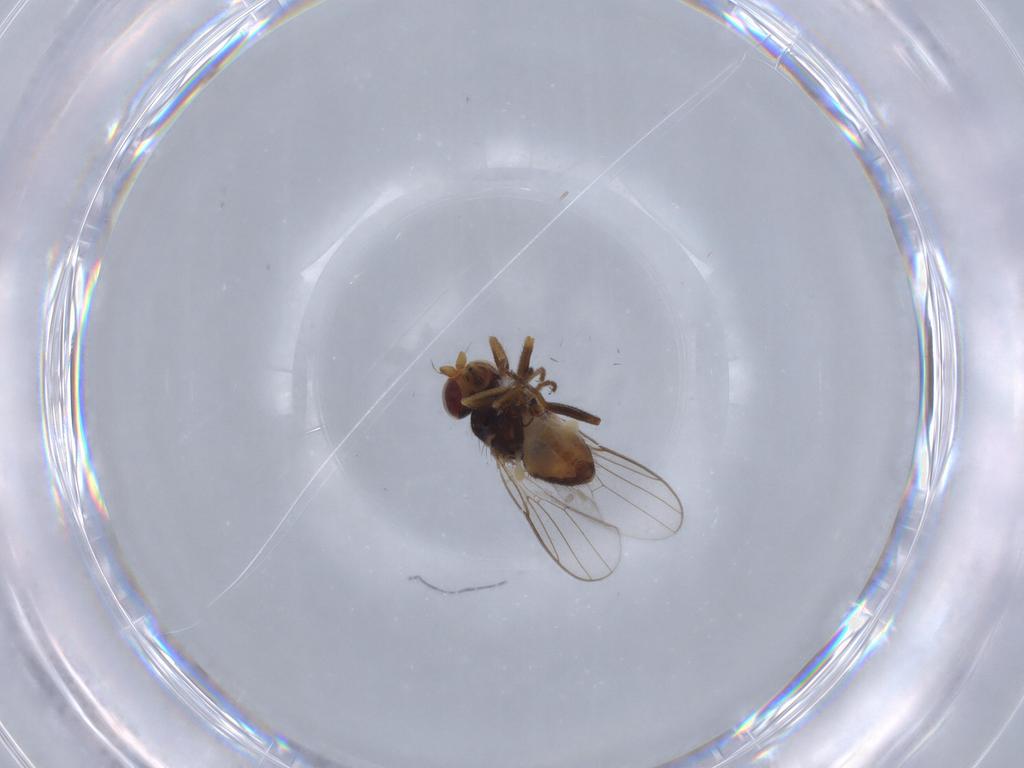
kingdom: Animalia
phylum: Arthropoda
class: Insecta
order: Diptera
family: Chloropidae
